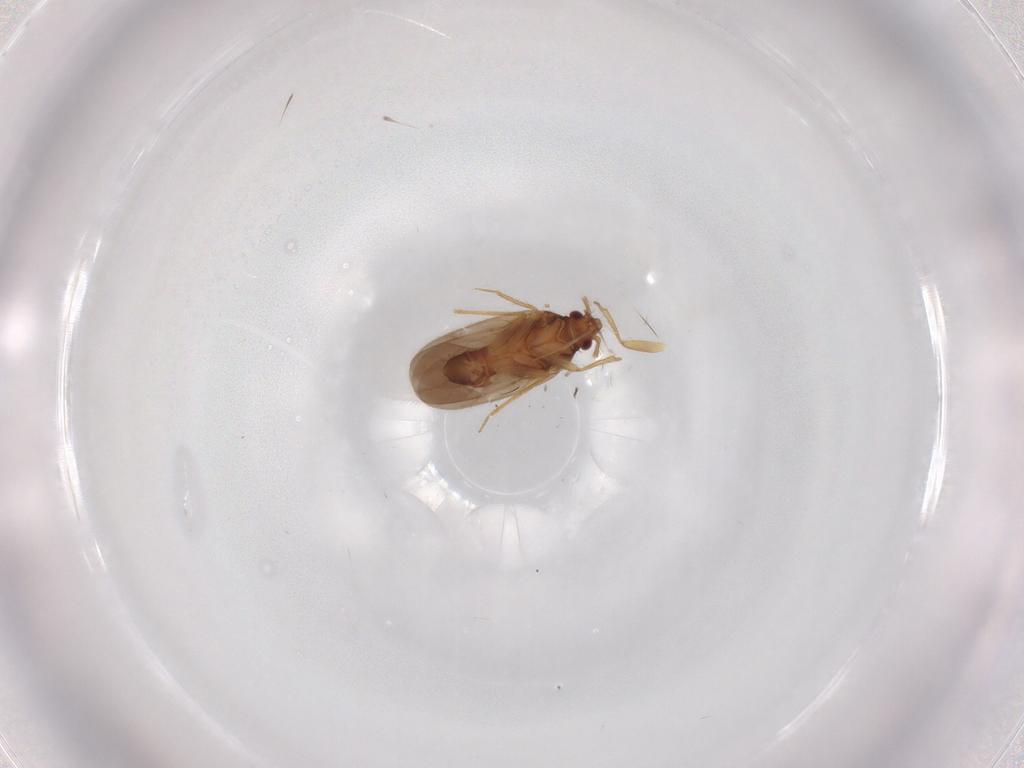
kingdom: Animalia
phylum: Arthropoda
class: Insecta
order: Hemiptera
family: Ceratocombidae
